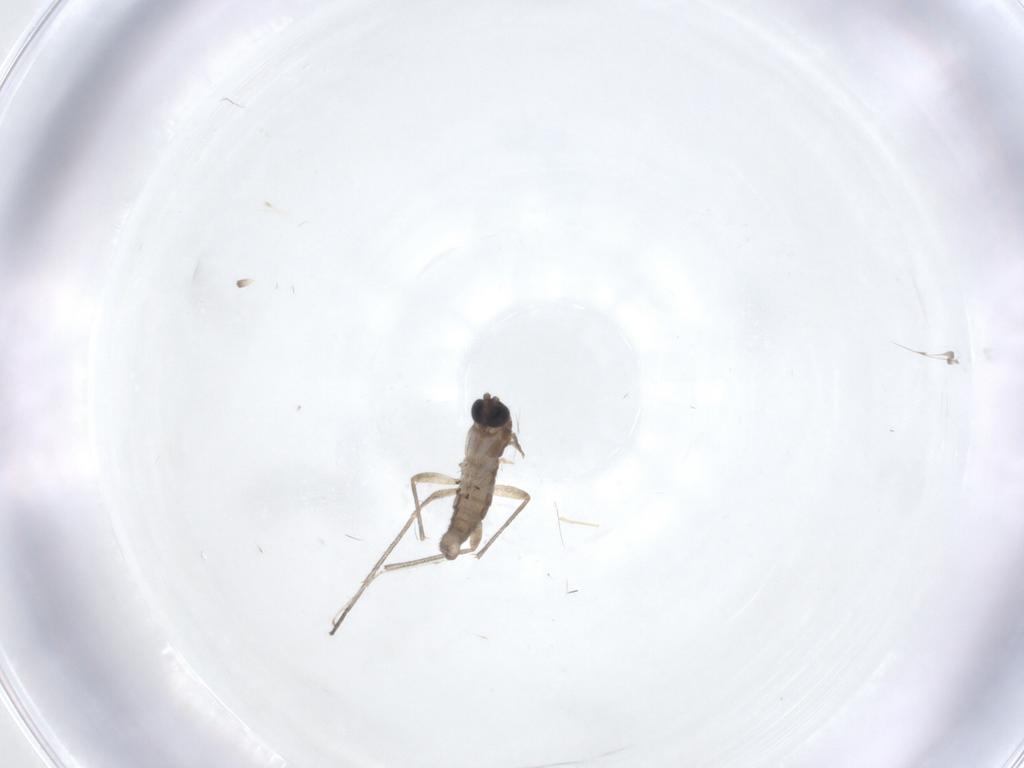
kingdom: Animalia
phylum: Arthropoda
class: Insecta
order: Diptera
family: Sciaridae
